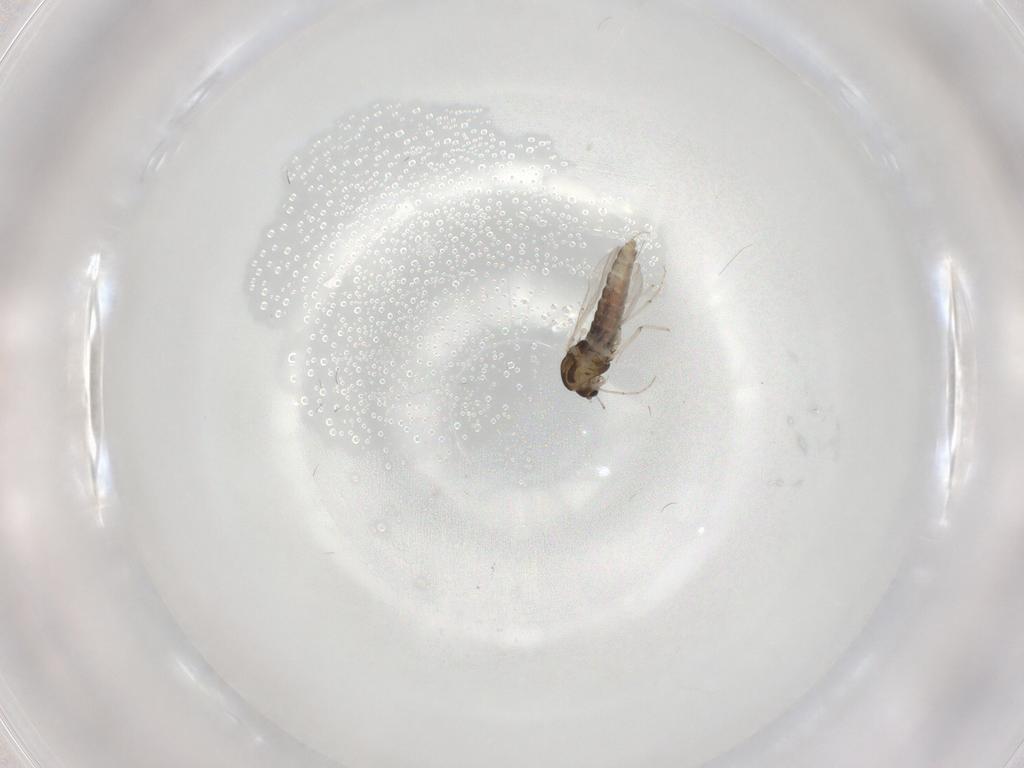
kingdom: Animalia
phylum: Arthropoda
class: Insecta
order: Diptera
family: Chironomidae
